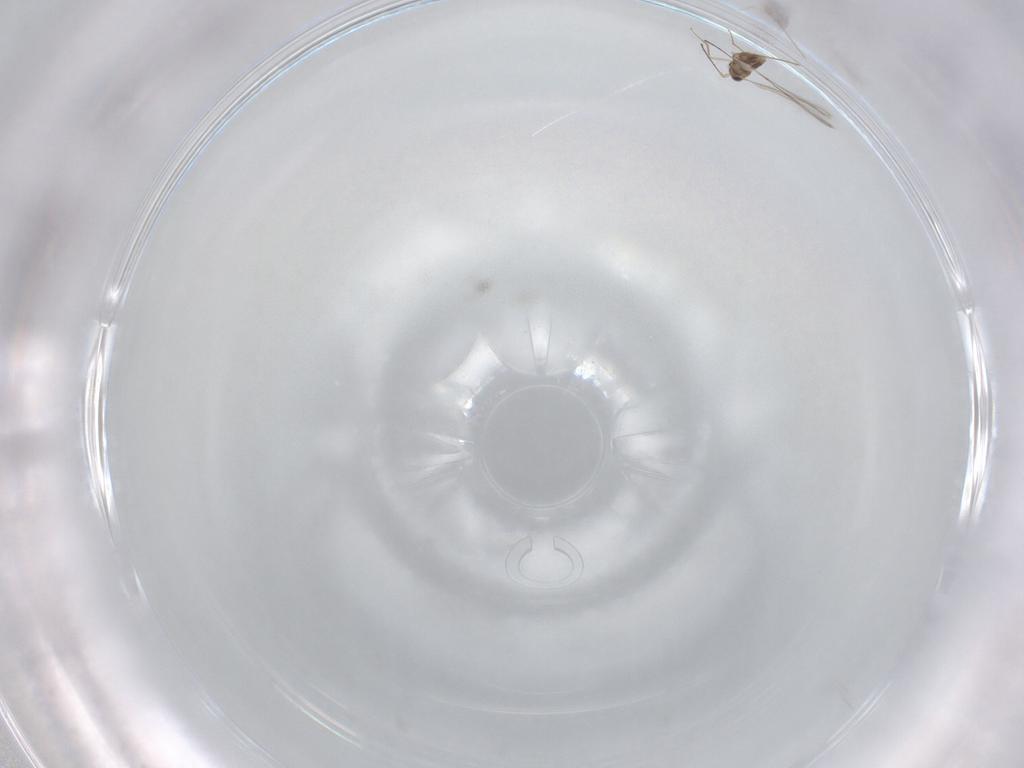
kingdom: Animalia
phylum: Arthropoda
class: Insecta
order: Hymenoptera
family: Mymaridae
